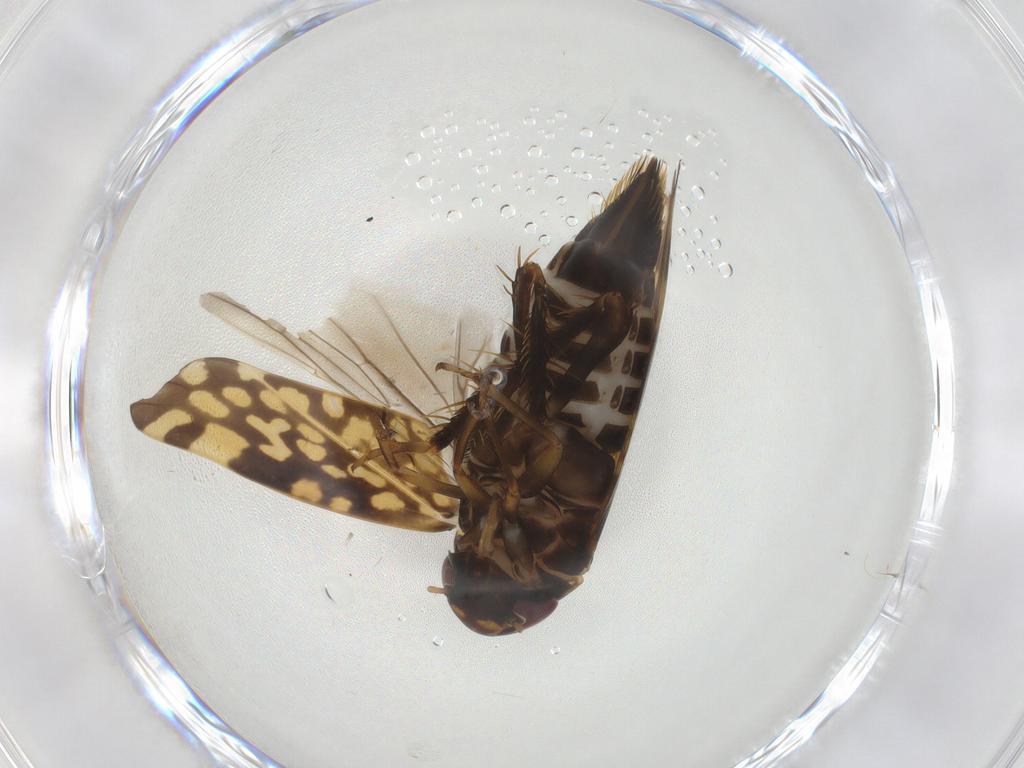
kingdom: Animalia
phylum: Arthropoda
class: Insecta
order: Hemiptera
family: Cicadellidae
